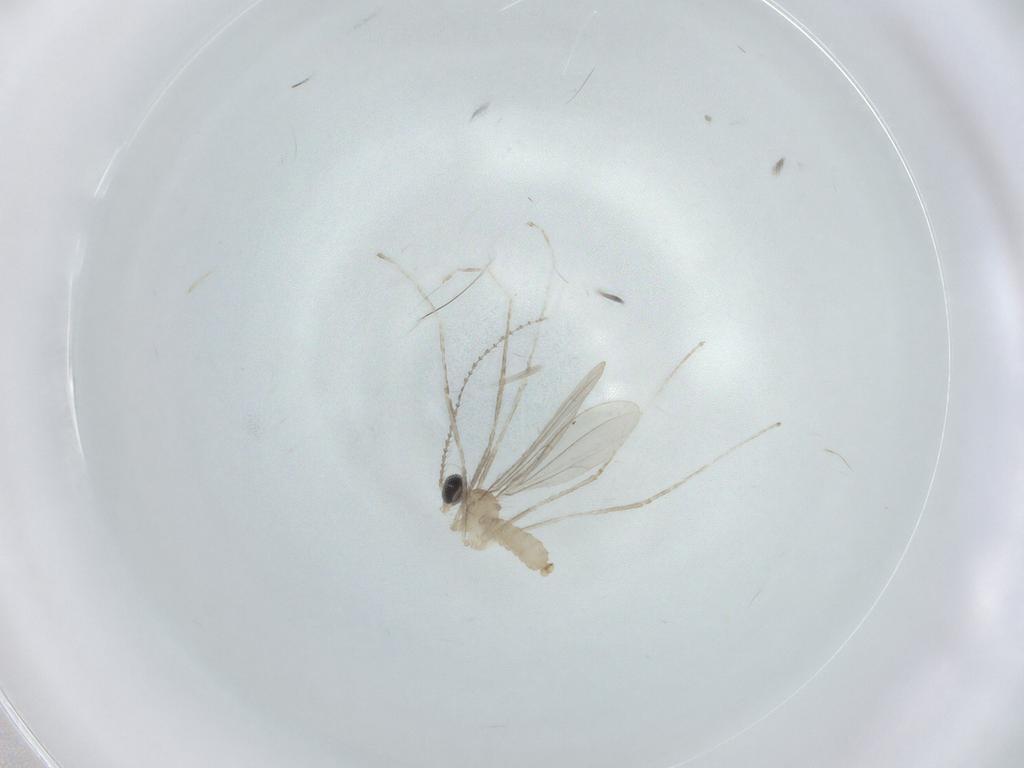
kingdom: Animalia
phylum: Arthropoda
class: Insecta
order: Diptera
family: Cecidomyiidae
